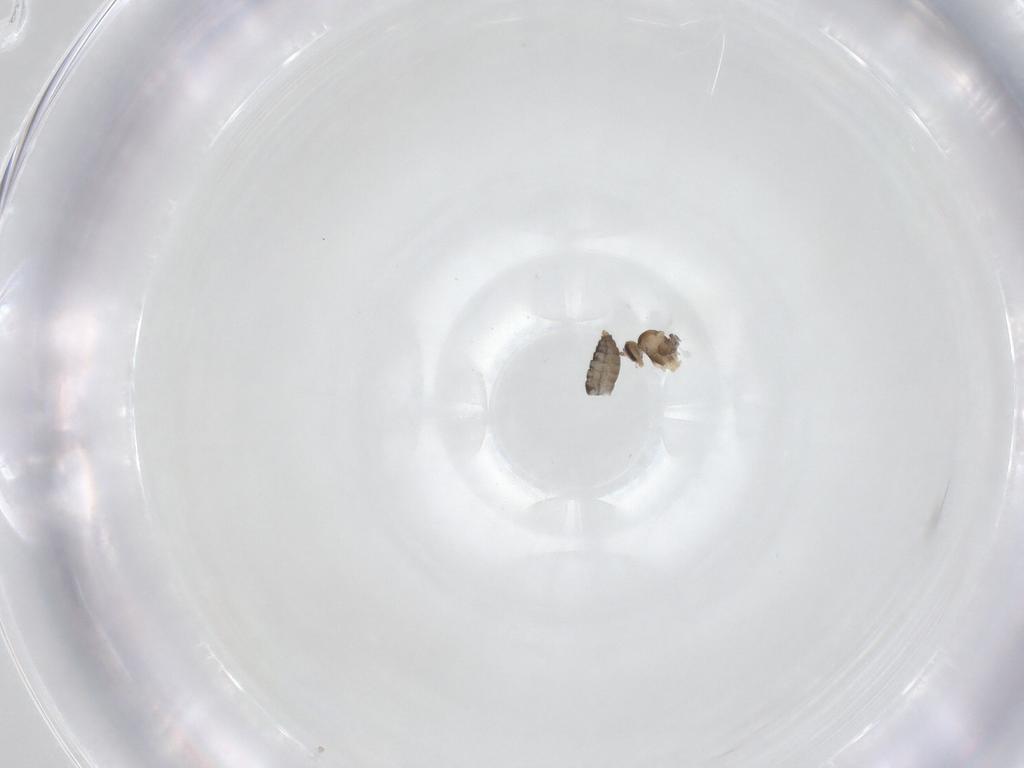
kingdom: Animalia
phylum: Arthropoda
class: Insecta
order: Diptera
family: Cecidomyiidae
